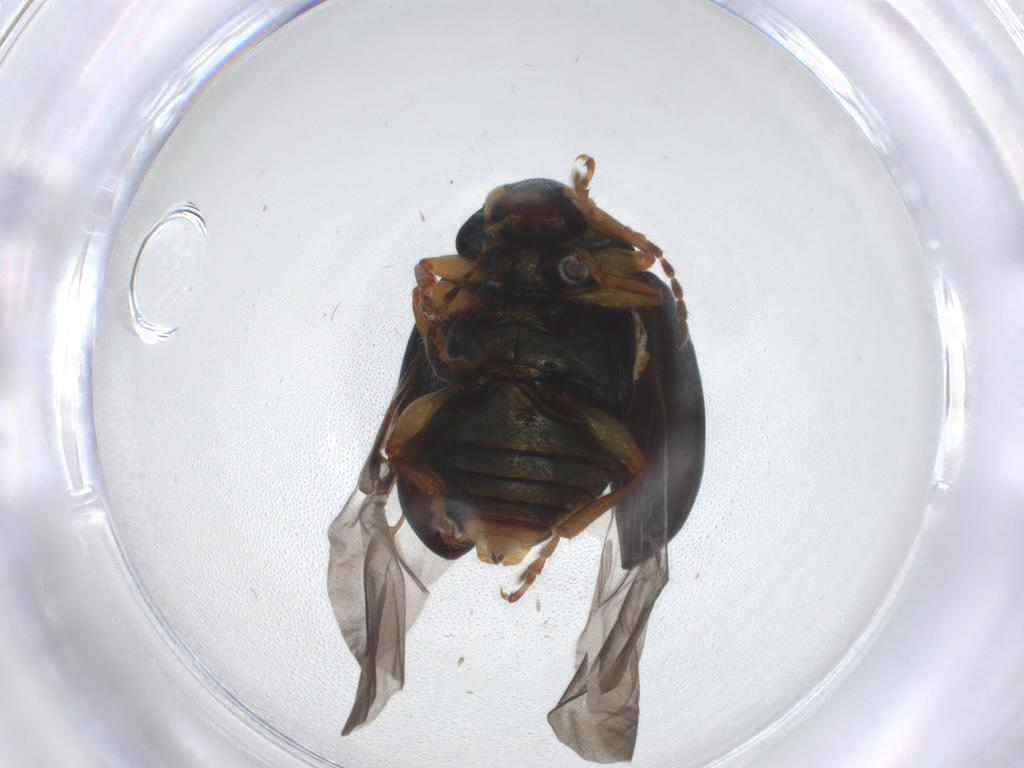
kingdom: Animalia
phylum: Arthropoda
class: Insecta
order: Coleoptera
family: Chrysomelidae
